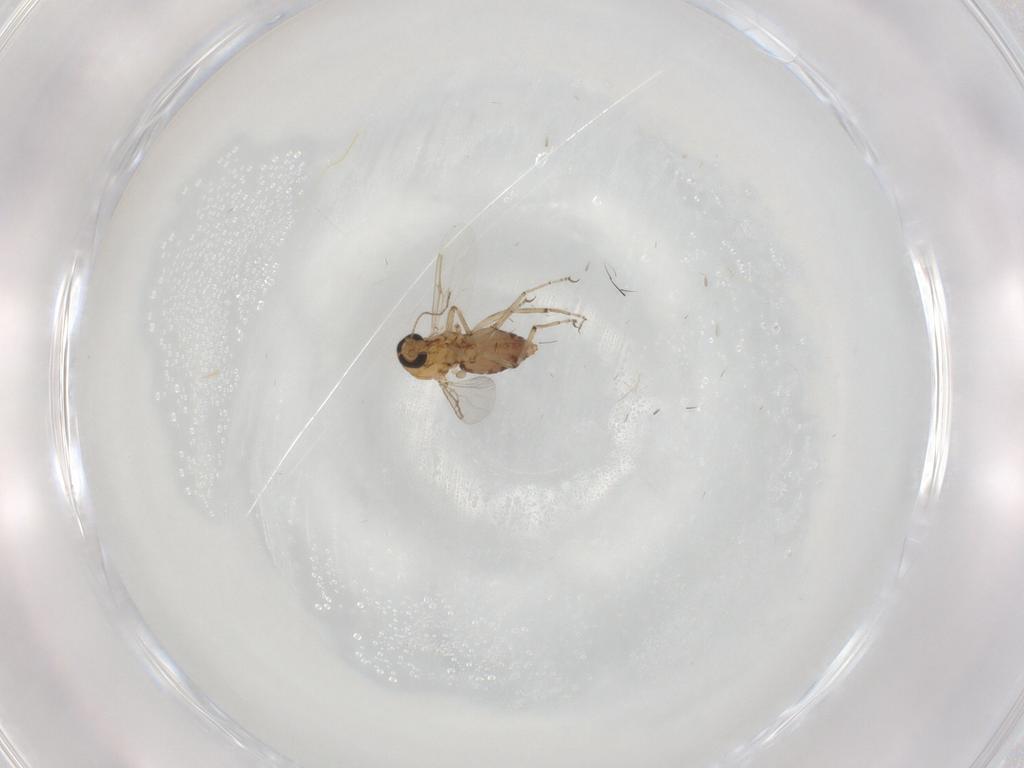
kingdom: Animalia
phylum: Arthropoda
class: Insecta
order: Diptera
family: Ceratopogonidae
